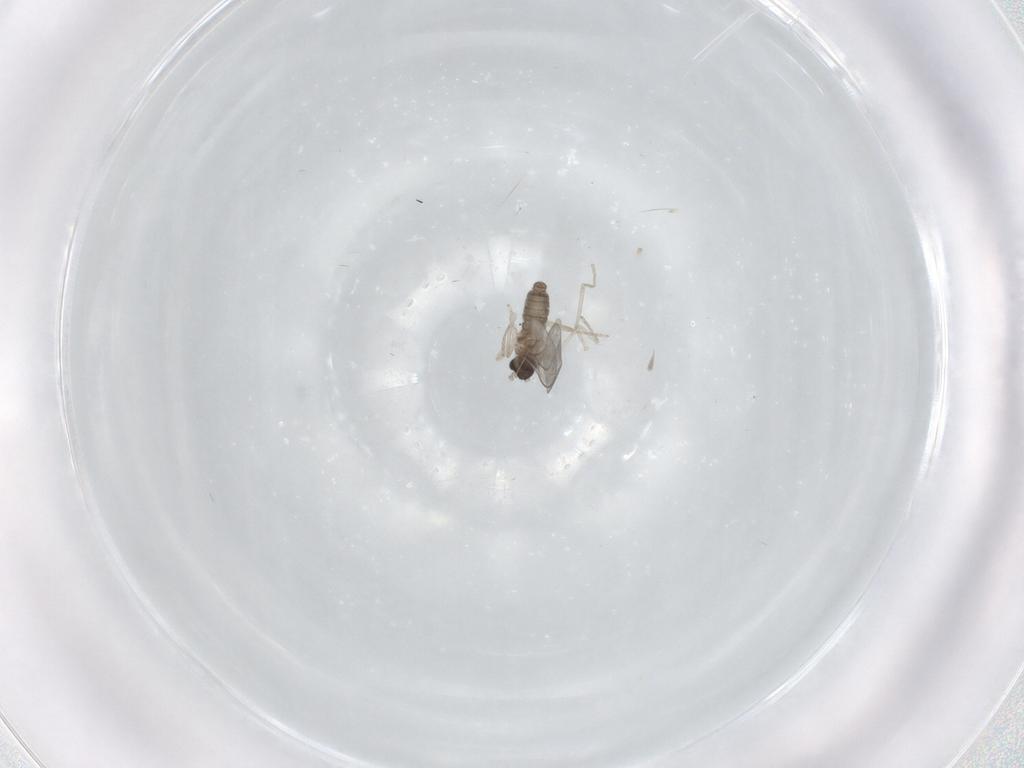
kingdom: Animalia
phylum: Arthropoda
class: Insecta
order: Diptera
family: Cecidomyiidae
